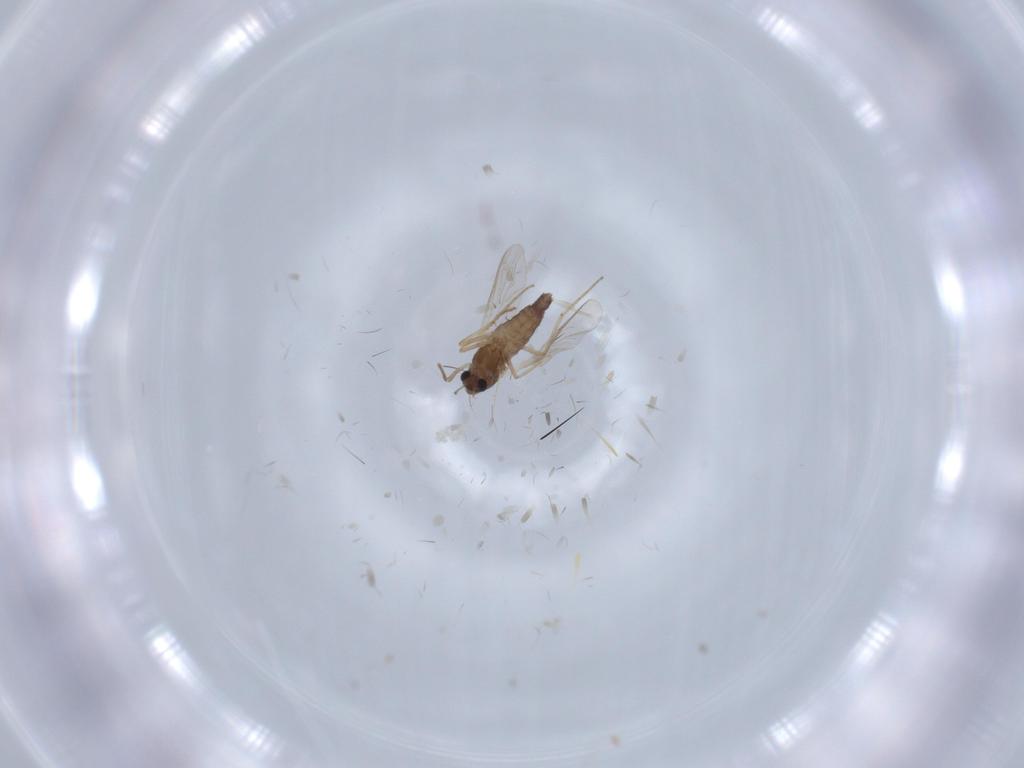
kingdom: Animalia
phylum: Arthropoda
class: Insecta
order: Diptera
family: Chironomidae
